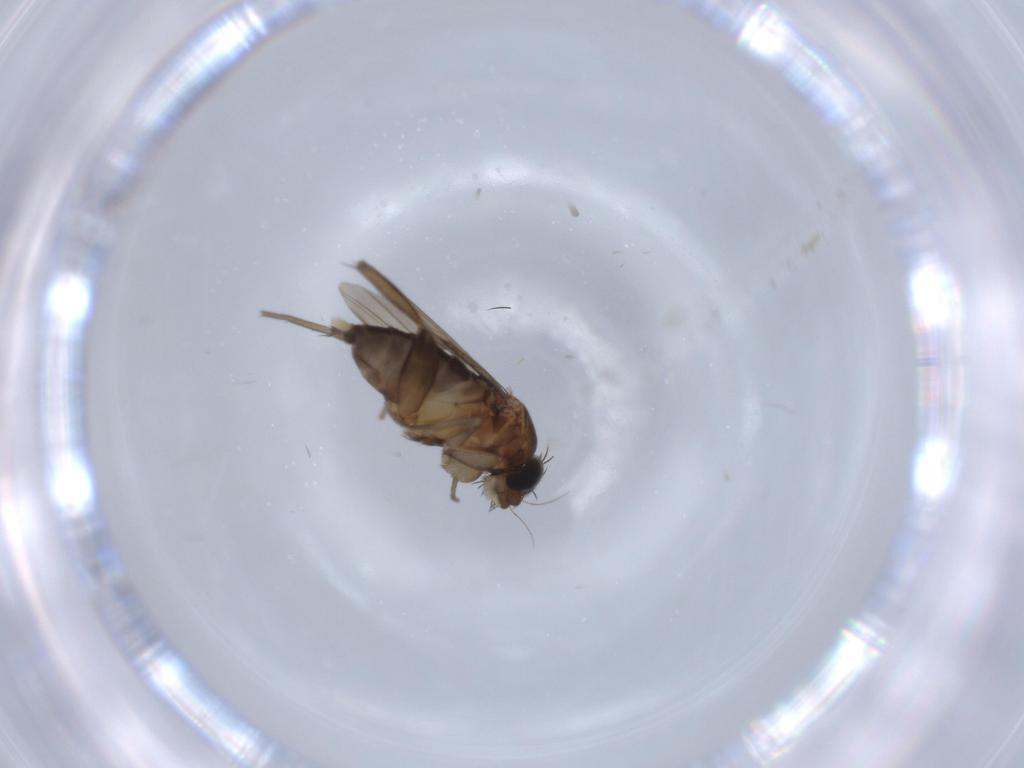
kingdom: Animalia
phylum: Arthropoda
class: Insecta
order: Diptera
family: Phoridae
